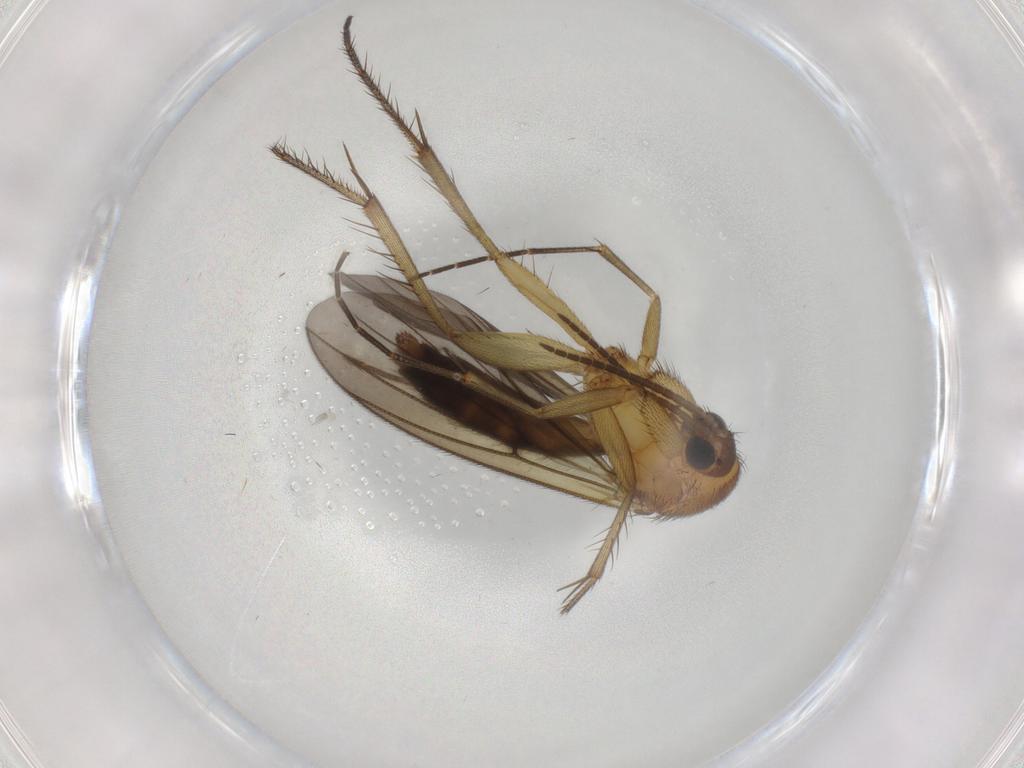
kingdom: Animalia
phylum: Arthropoda
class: Insecta
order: Diptera
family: Chironomidae
